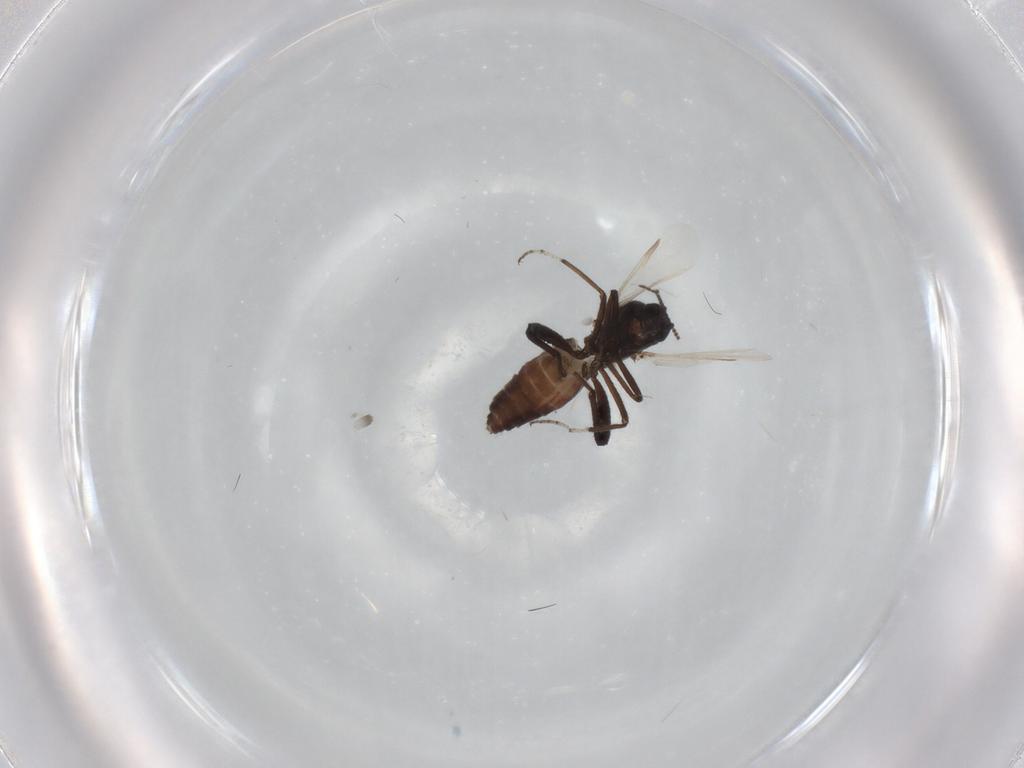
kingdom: Animalia
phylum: Arthropoda
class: Insecta
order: Diptera
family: Ceratopogonidae
